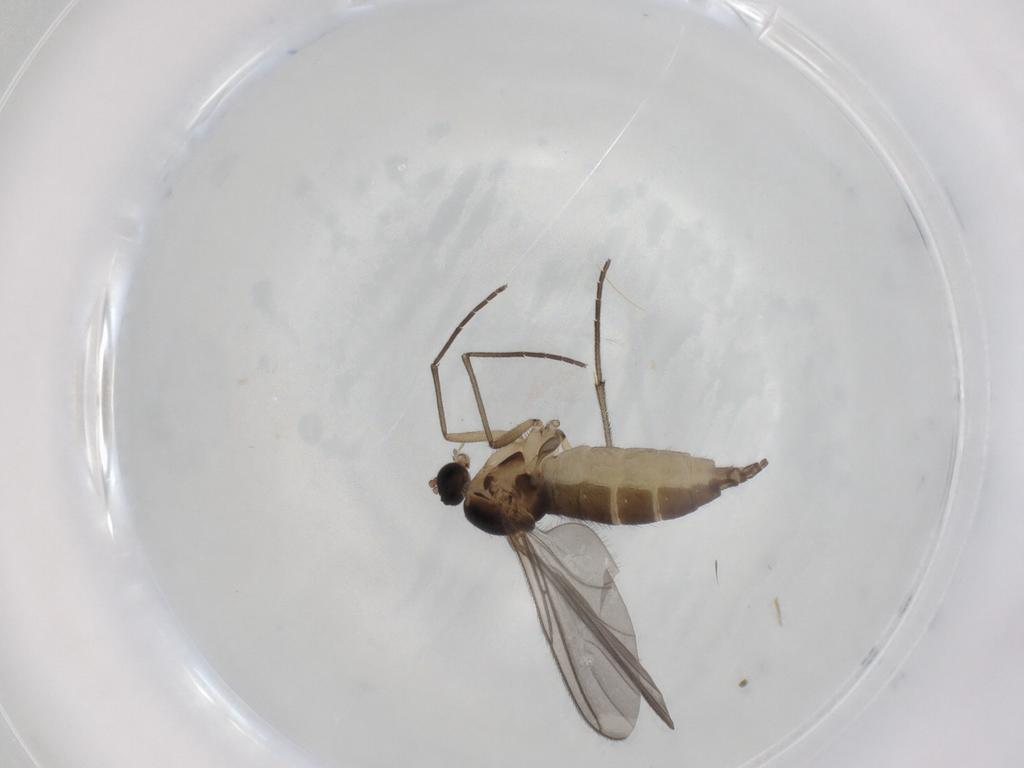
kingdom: Animalia
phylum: Arthropoda
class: Insecta
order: Diptera
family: Sciaridae
